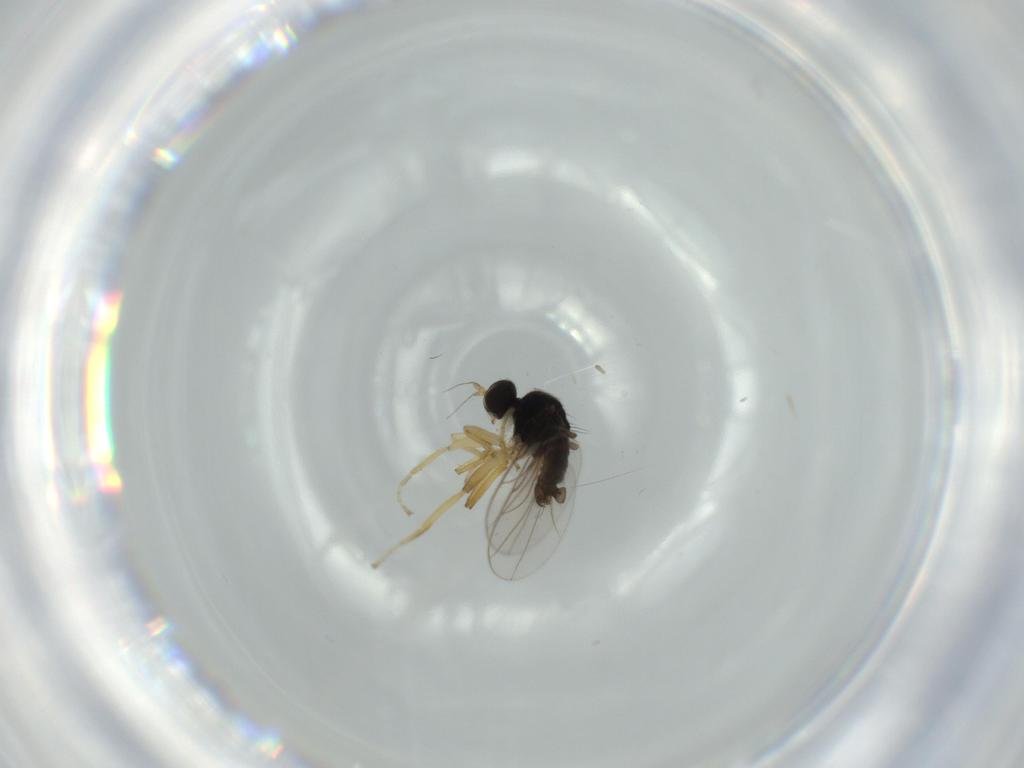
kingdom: Animalia
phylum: Arthropoda
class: Insecta
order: Diptera
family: Hybotidae
